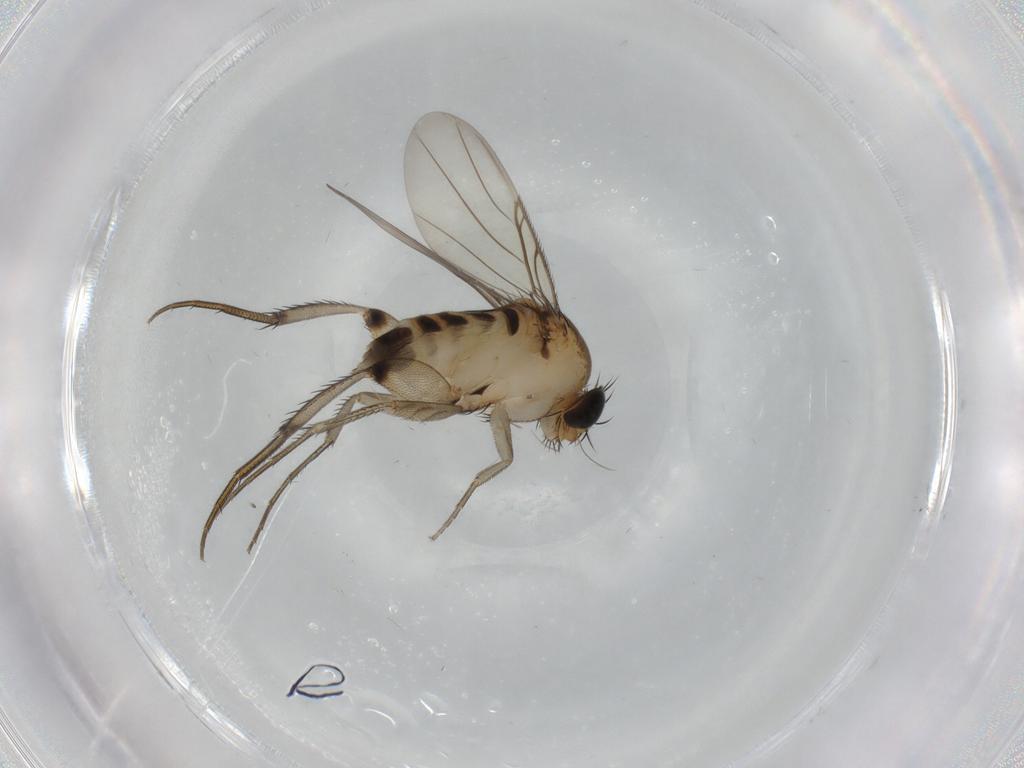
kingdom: Animalia
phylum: Arthropoda
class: Insecta
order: Diptera
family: Phoridae
